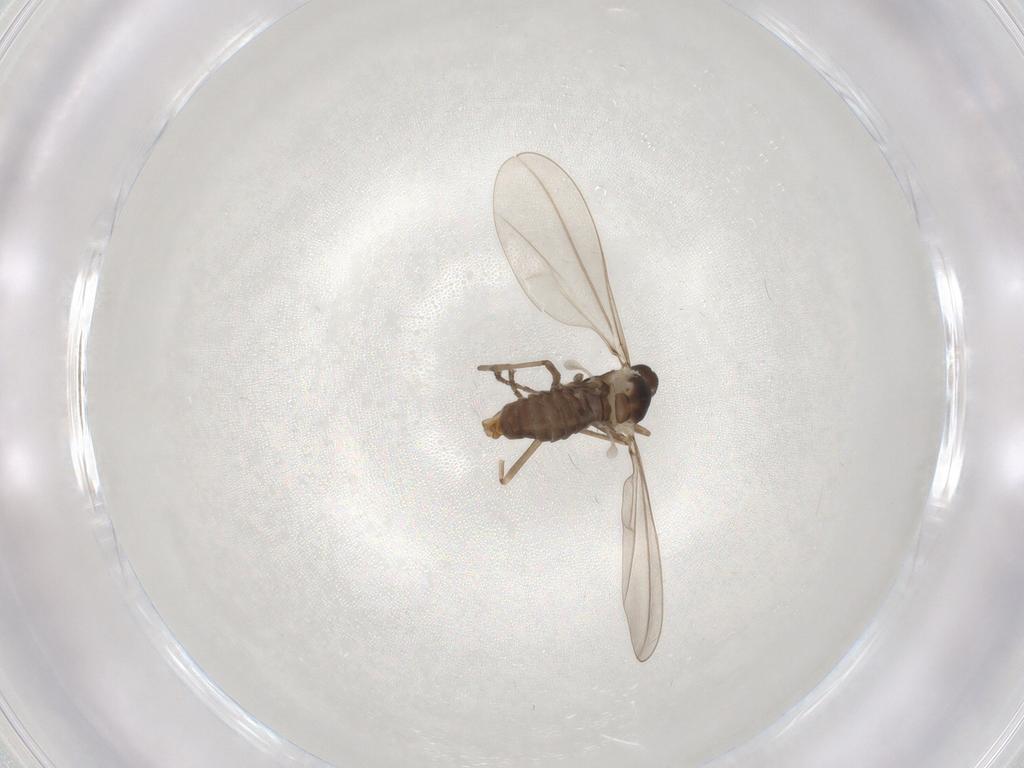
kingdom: Animalia
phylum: Arthropoda
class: Insecta
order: Diptera
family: Cecidomyiidae
